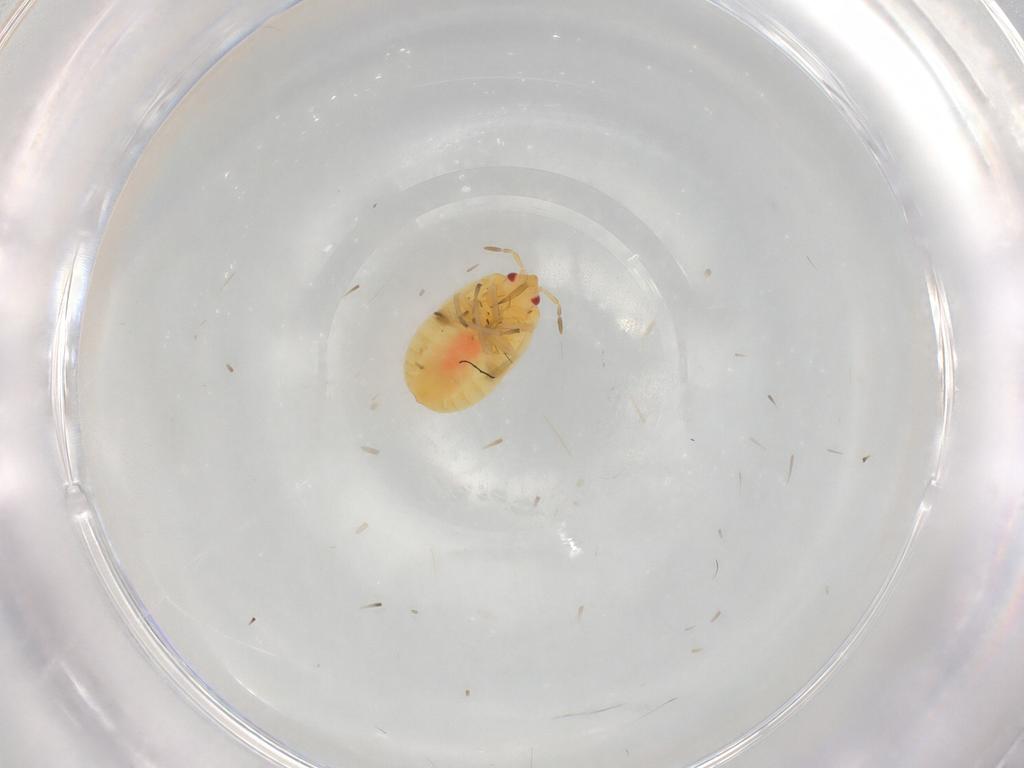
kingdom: Animalia
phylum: Arthropoda
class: Insecta
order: Hemiptera
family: Anthocoridae
